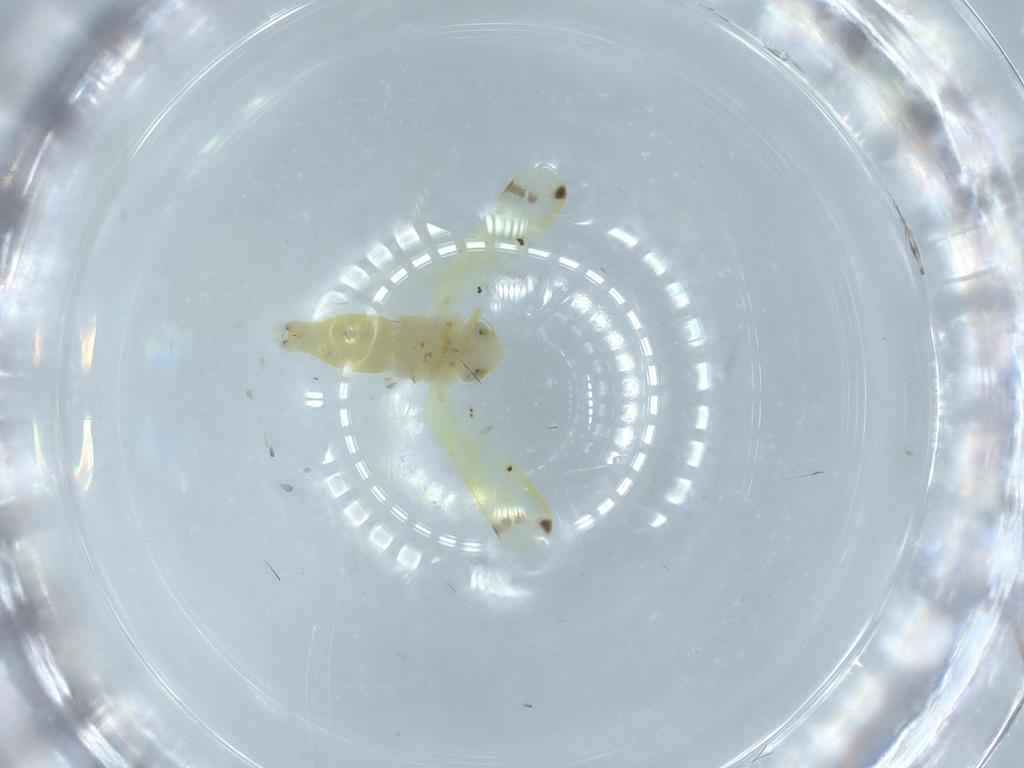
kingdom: Animalia
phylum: Arthropoda
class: Insecta
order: Hemiptera
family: Cicadellidae
